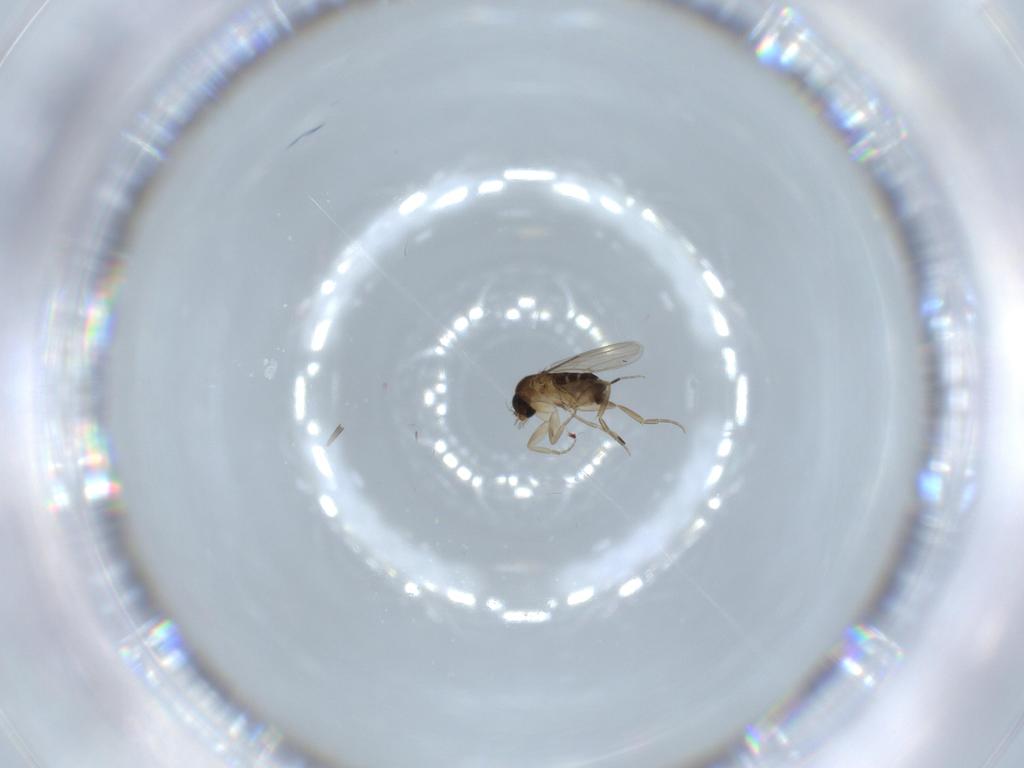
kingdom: Animalia
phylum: Arthropoda
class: Insecta
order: Diptera
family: Phoridae
